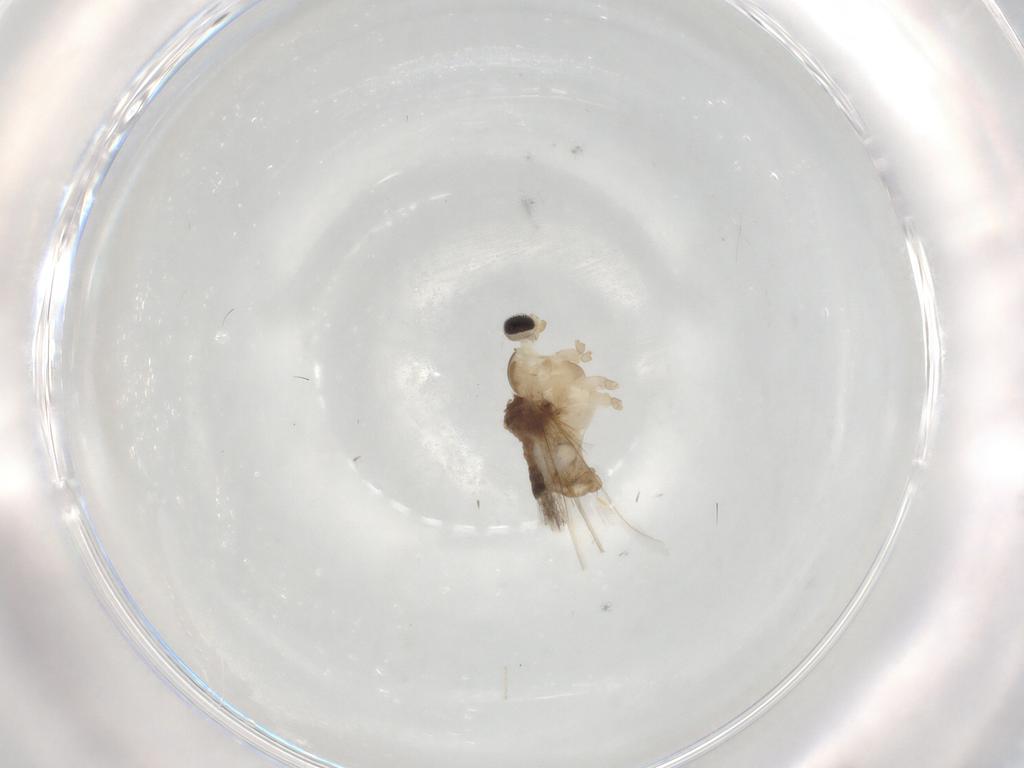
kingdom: Animalia
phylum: Arthropoda
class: Insecta
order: Diptera
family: Cecidomyiidae
